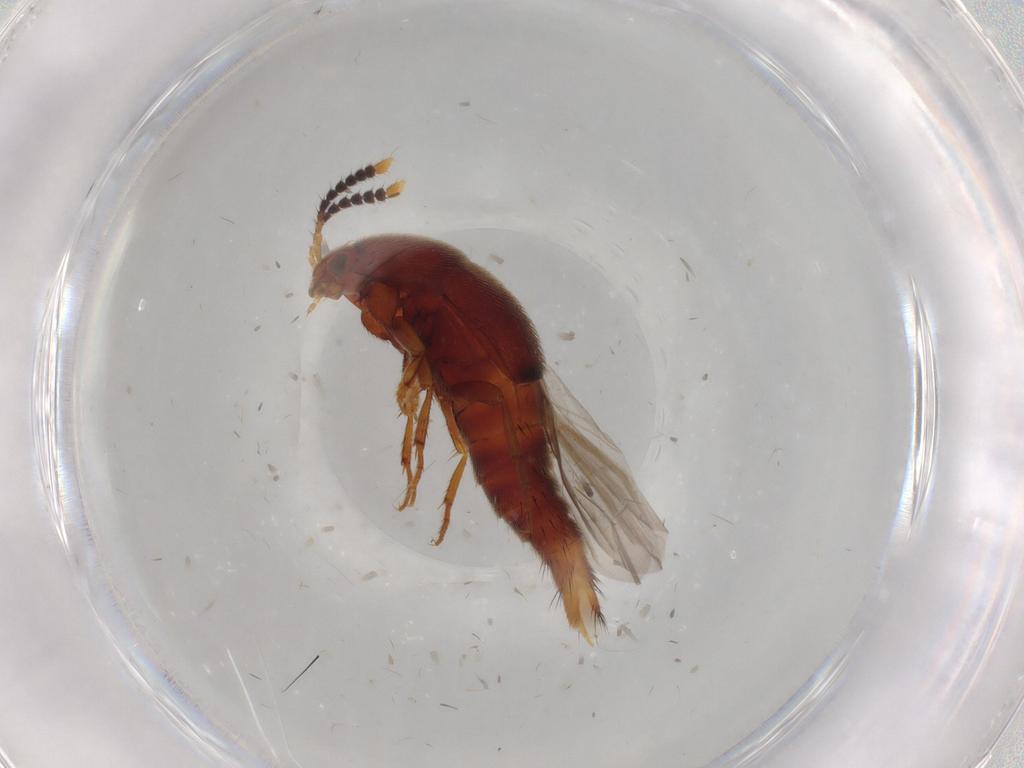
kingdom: Animalia
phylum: Arthropoda
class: Insecta
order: Coleoptera
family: Staphylinidae
